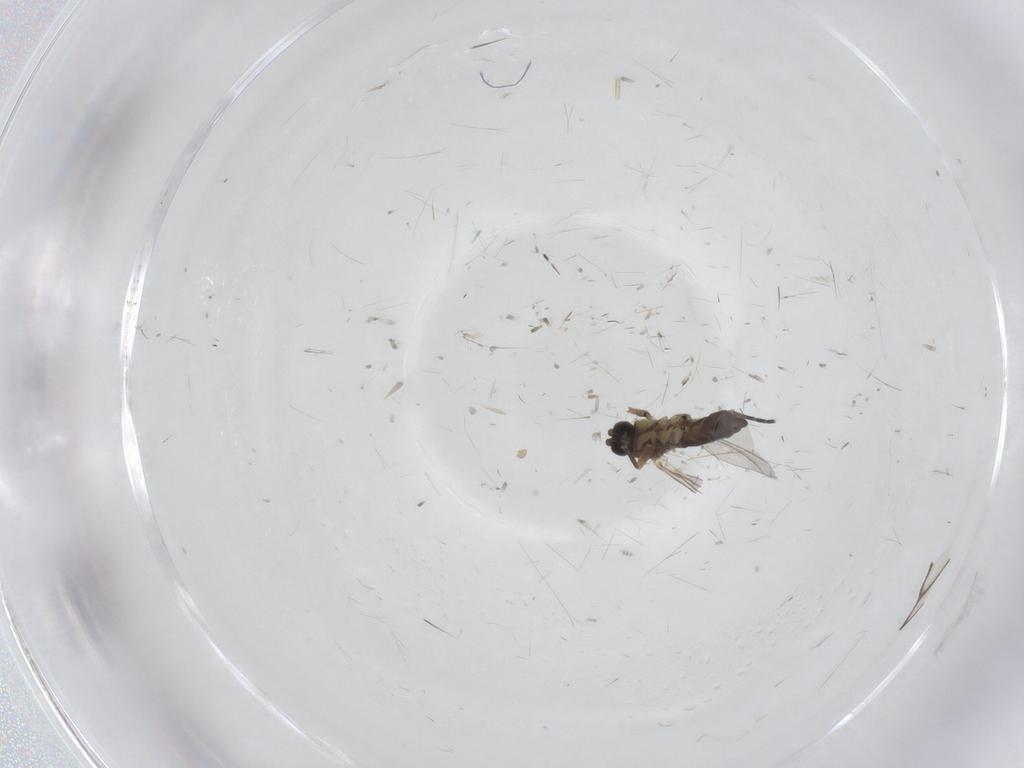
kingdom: Animalia
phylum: Arthropoda
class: Insecta
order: Hemiptera
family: Cixiidae
